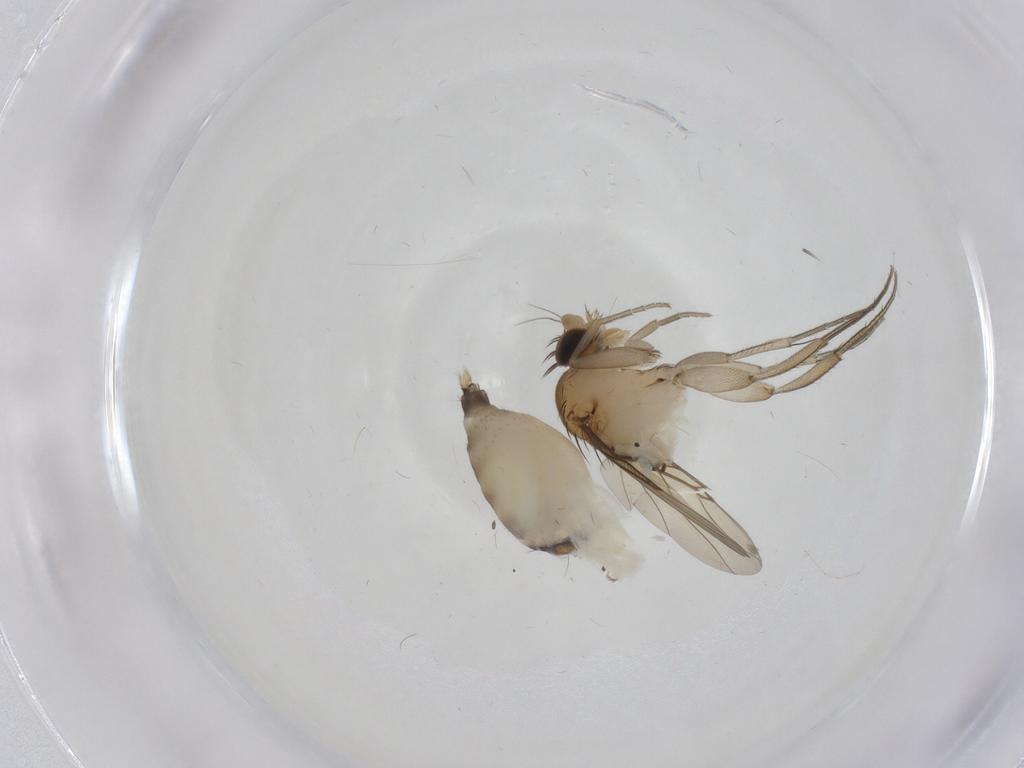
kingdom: Animalia
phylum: Arthropoda
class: Insecta
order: Diptera
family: Phoridae
